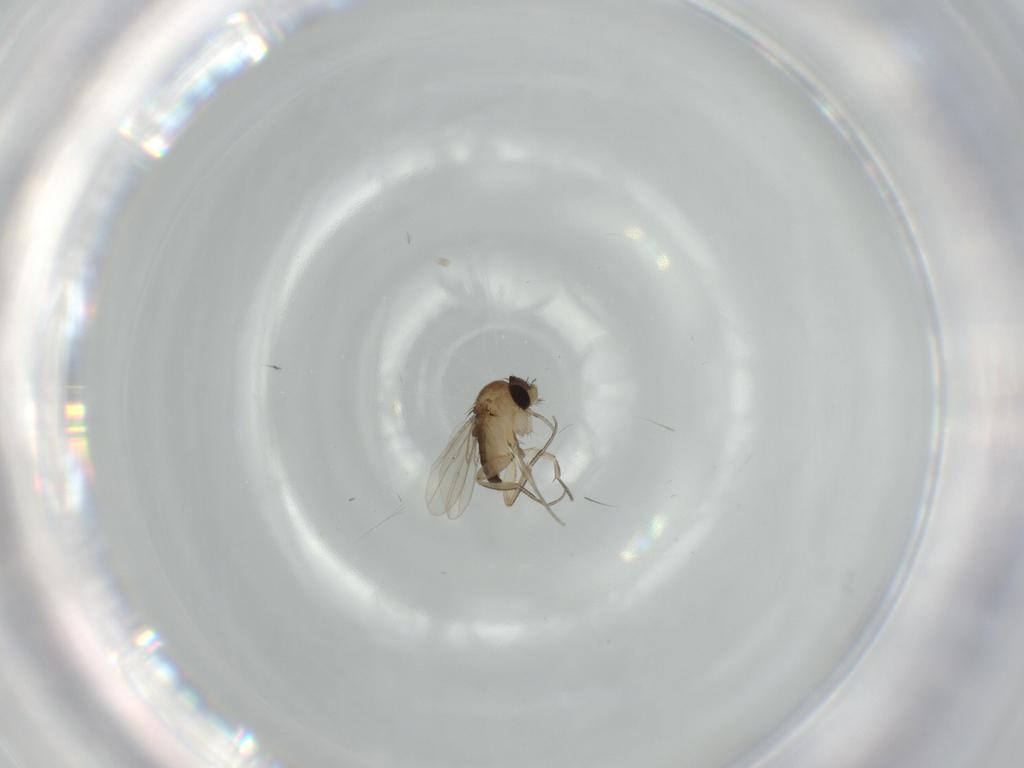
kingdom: Animalia
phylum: Arthropoda
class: Insecta
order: Diptera
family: Phoridae
